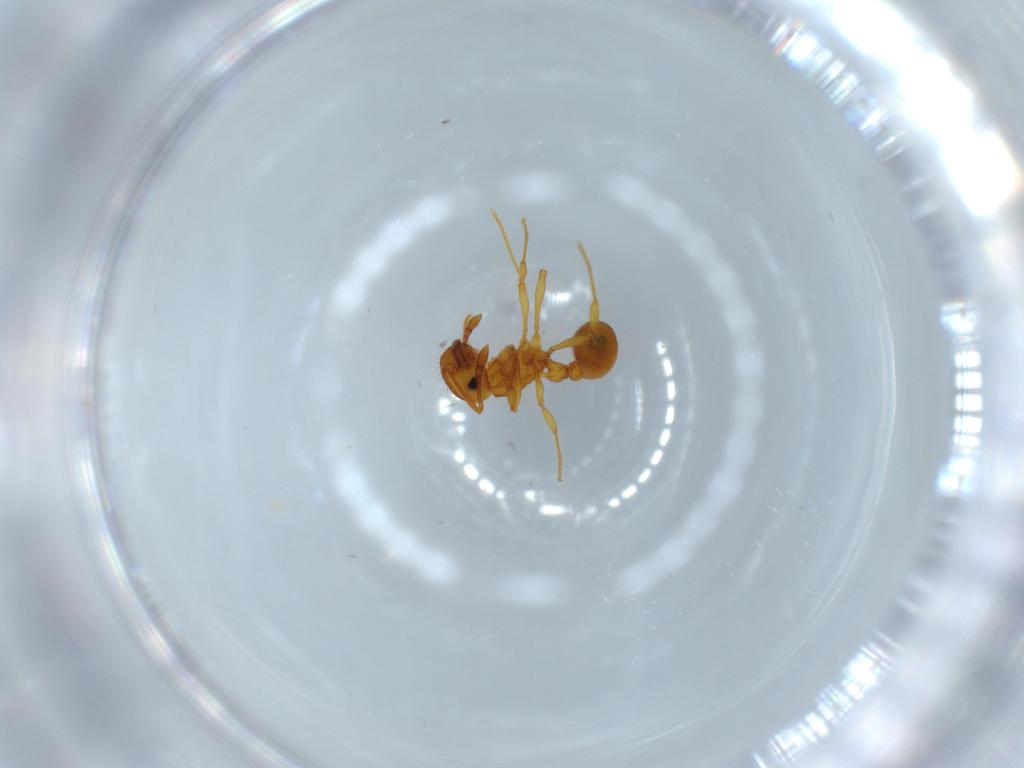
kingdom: Animalia
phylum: Arthropoda
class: Insecta
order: Hymenoptera
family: Formicidae
